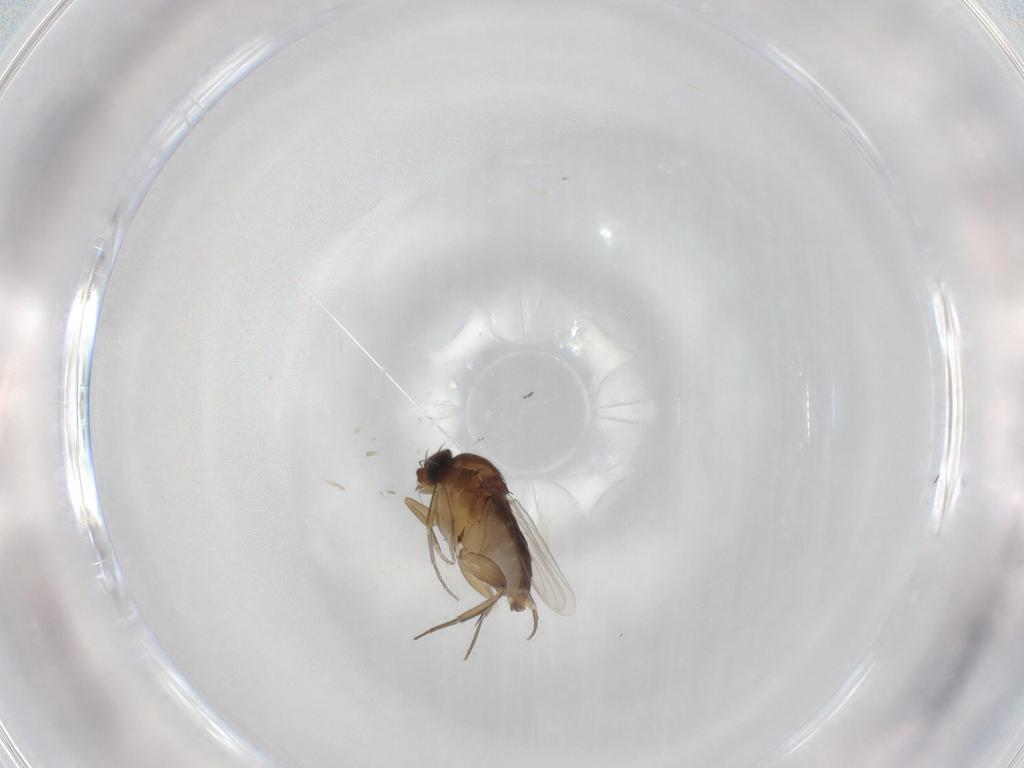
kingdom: Animalia
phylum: Arthropoda
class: Insecta
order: Diptera
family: Phoridae
